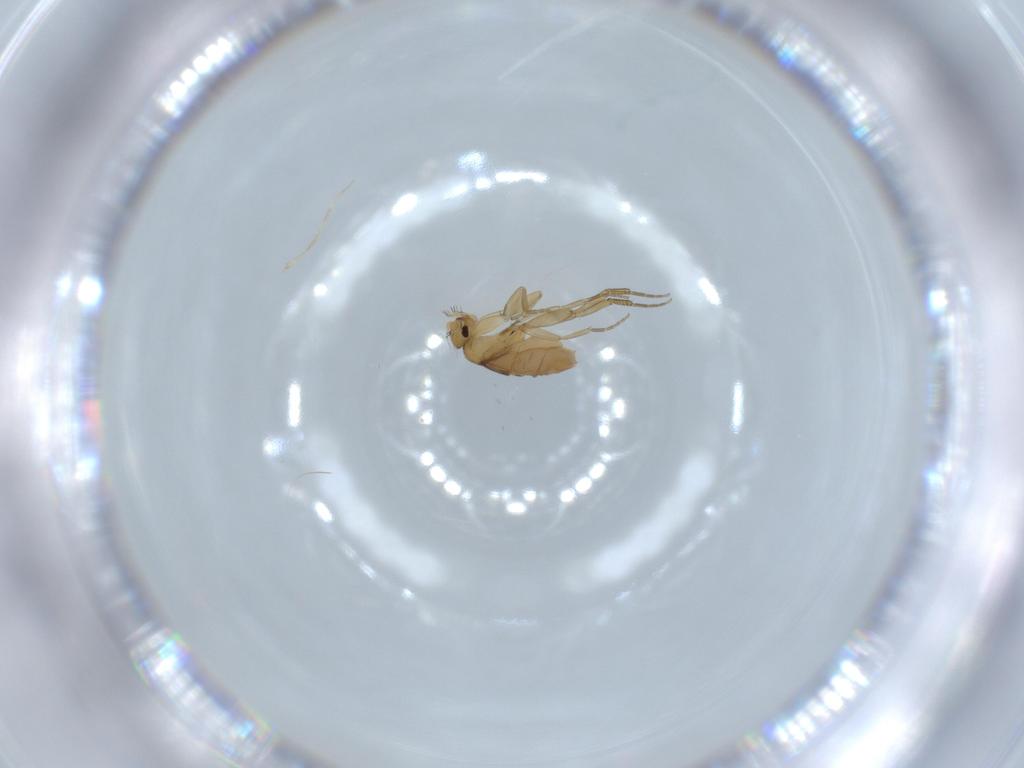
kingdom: Animalia
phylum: Arthropoda
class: Insecta
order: Diptera
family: Phoridae
